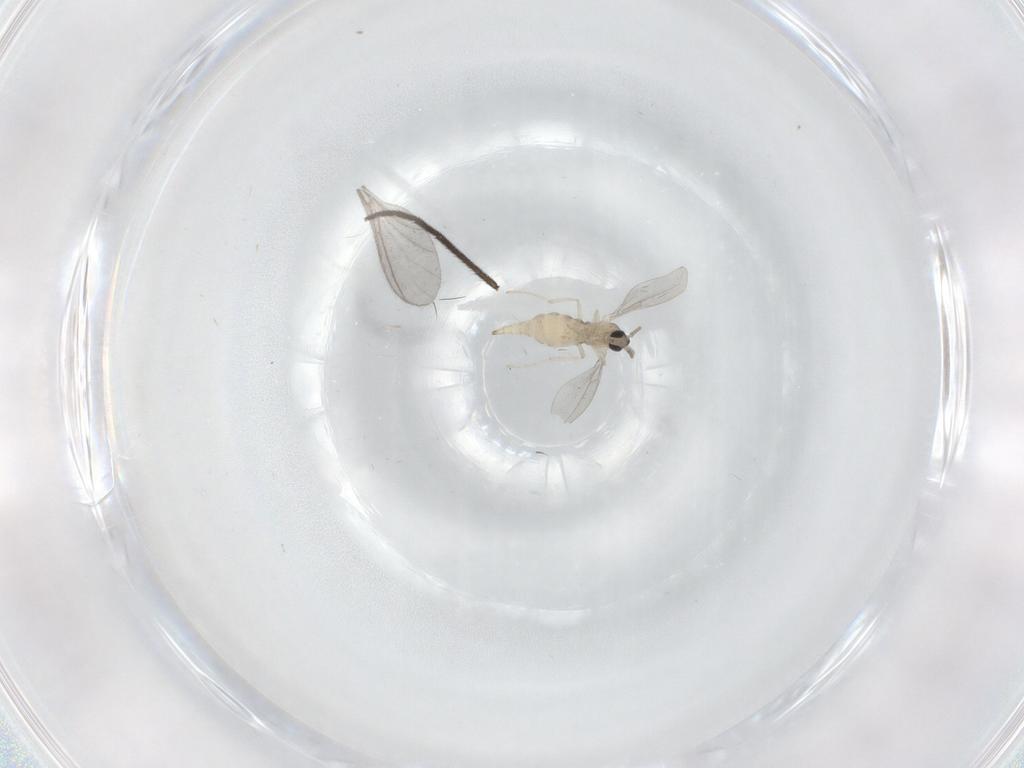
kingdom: Animalia
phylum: Arthropoda
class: Insecta
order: Diptera
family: Cecidomyiidae
